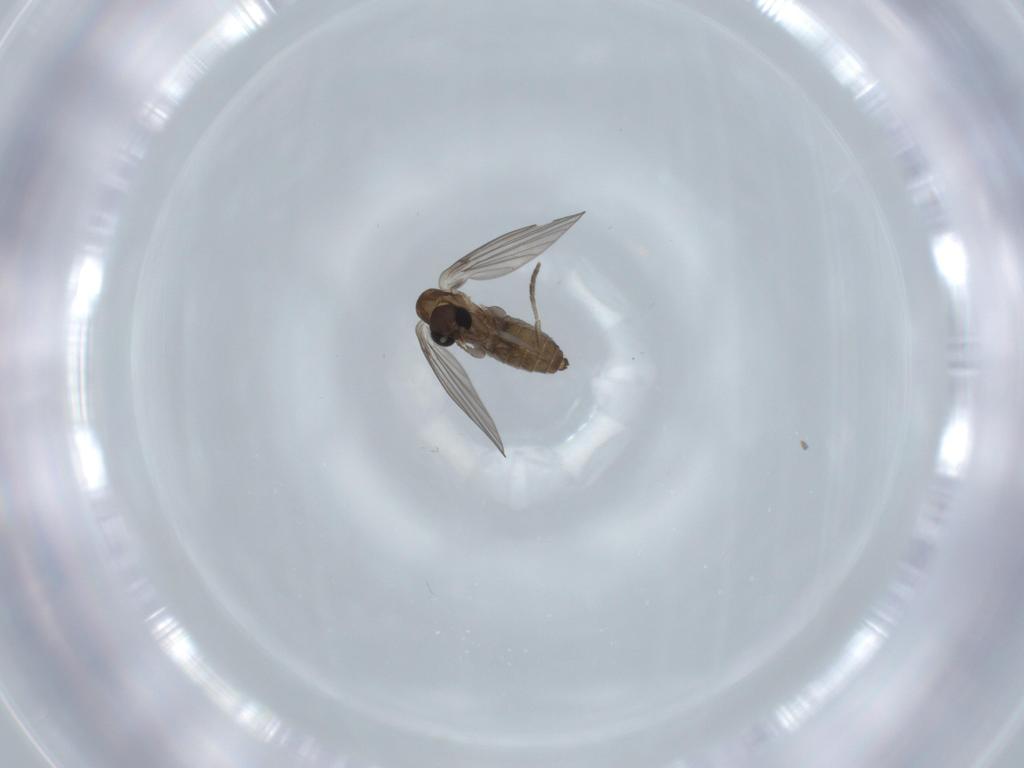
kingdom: Animalia
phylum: Arthropoda
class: Insecta
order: Diptera
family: Psychodidae
